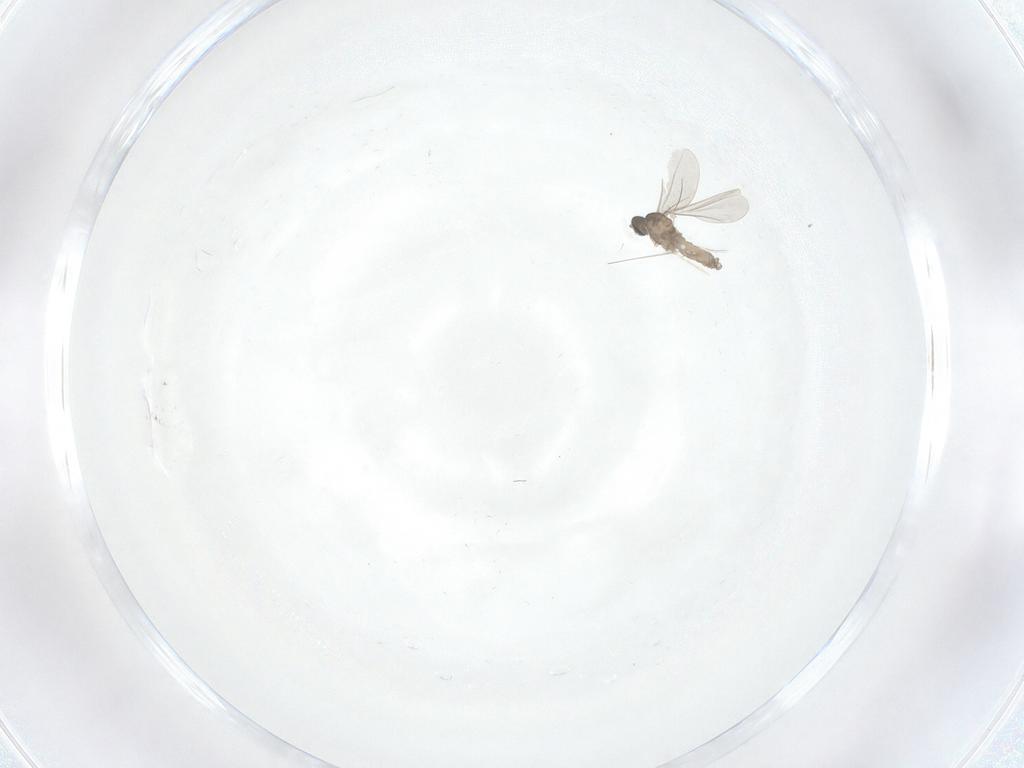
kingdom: Animalia
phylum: Arthropoda
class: Insecta
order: Diptera
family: Cecidomyiidae
